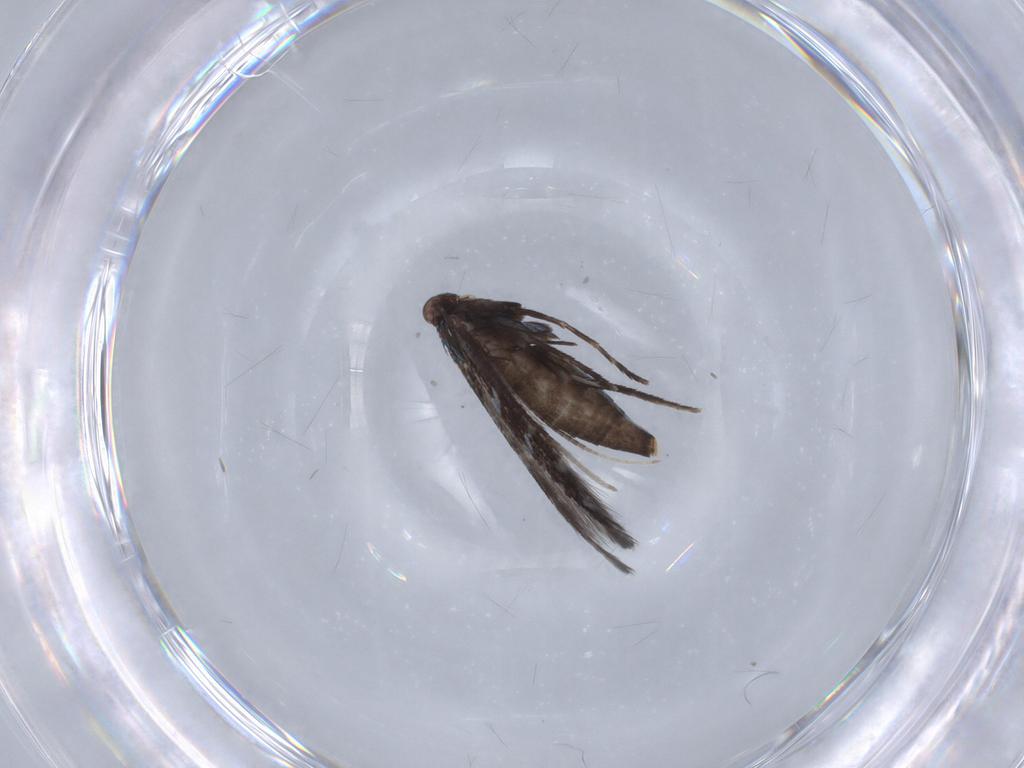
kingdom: Animalia
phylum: Arthropoda
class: Insecta
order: Lepidoptera
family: Gracillariidae
